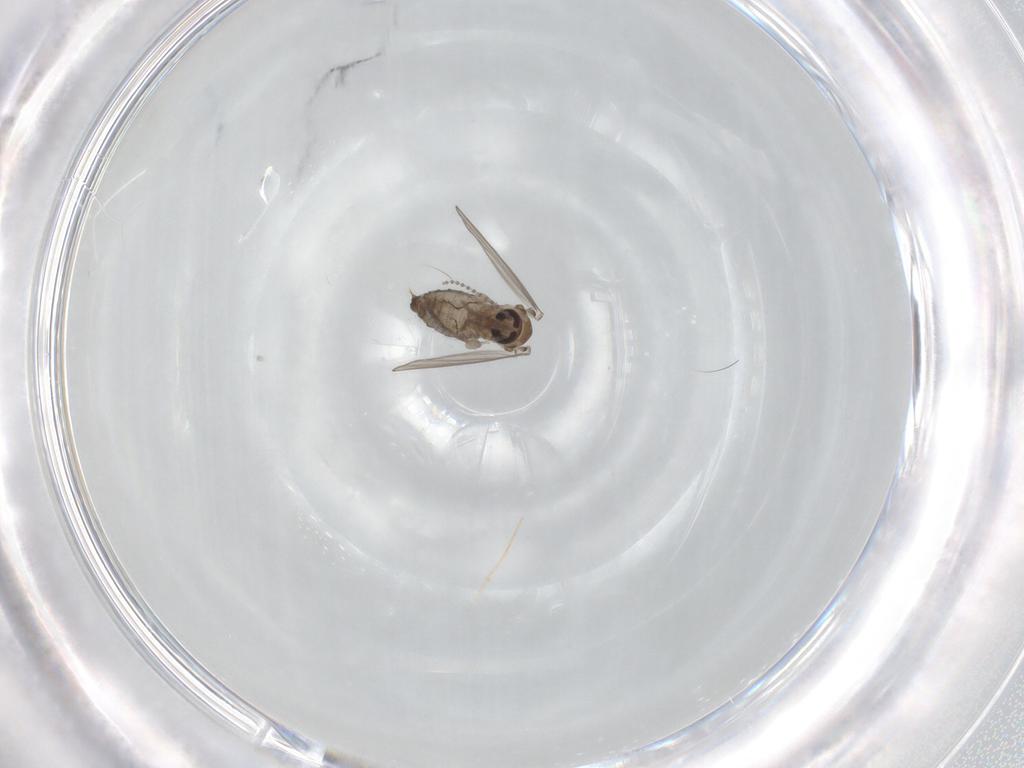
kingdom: Animalia
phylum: Arthropoda
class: Insecta
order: Diptera
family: Psychodidae
